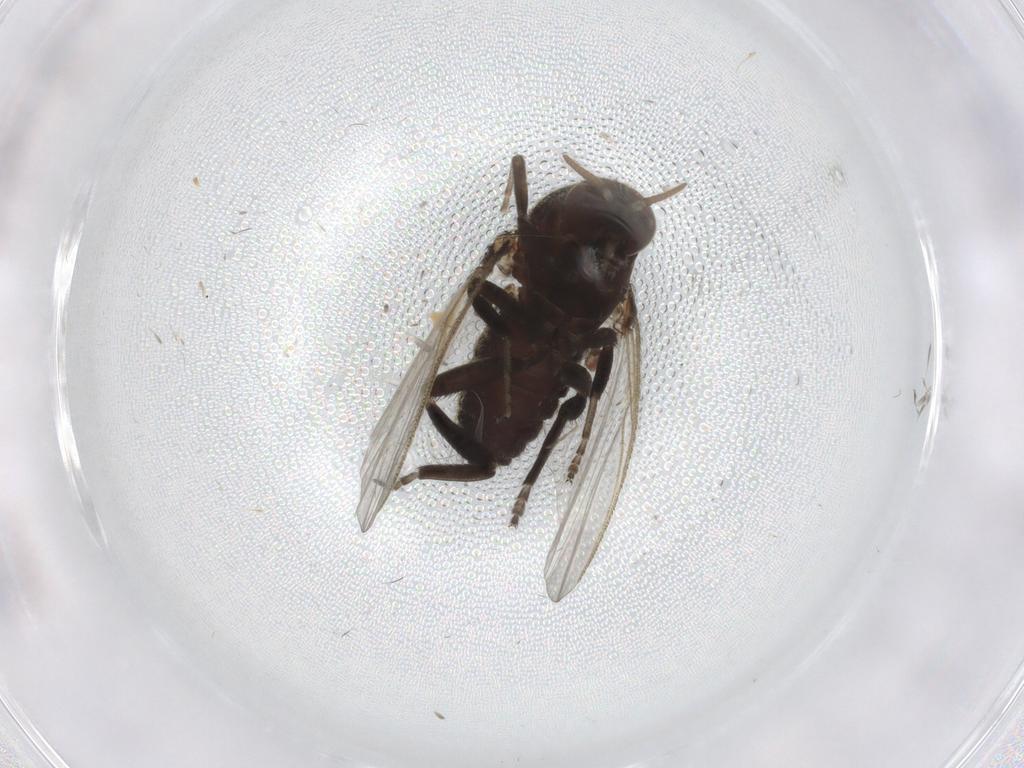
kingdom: Animalia
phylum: Arthropoda
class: Insecta
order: Diptera
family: Psychodidae
